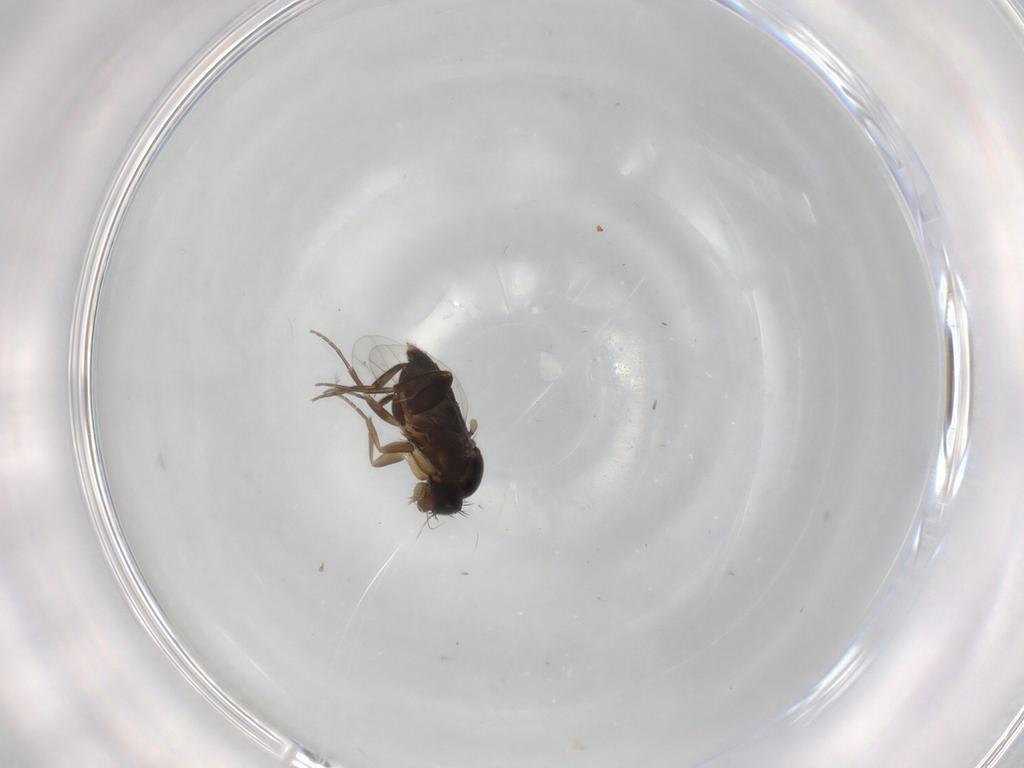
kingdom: Animalia
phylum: Arthropoda
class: Insecta
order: Diptera
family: Phoridae
